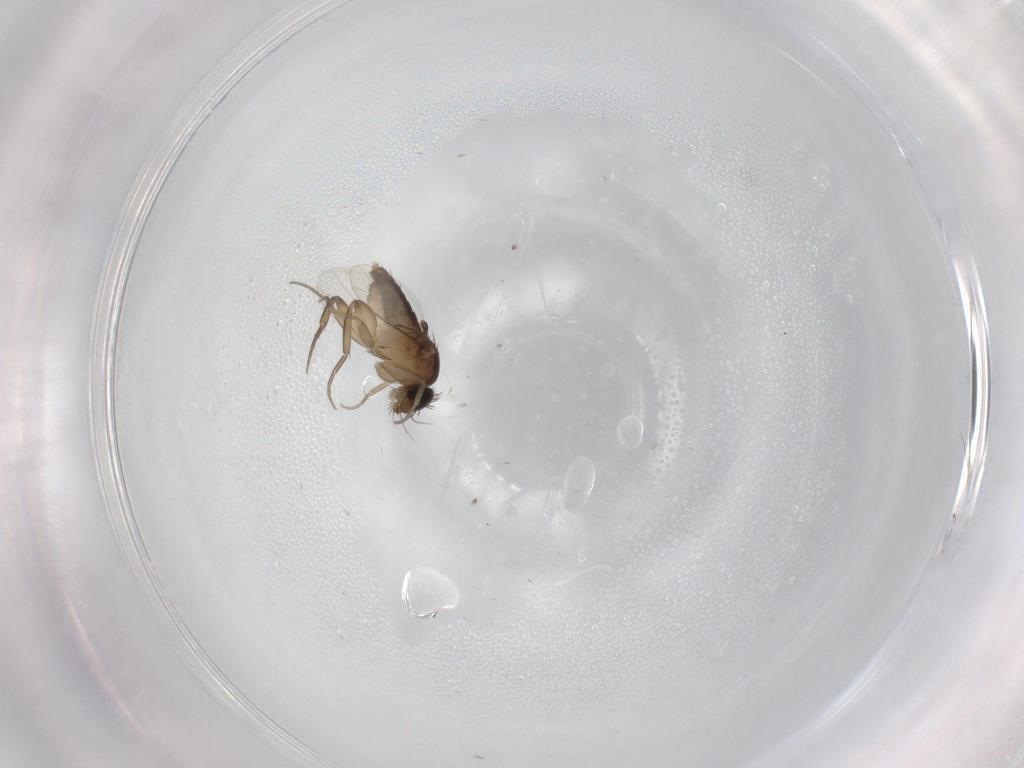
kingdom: Animalia
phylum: Arthropoda
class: Insecta
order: Diptera
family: Phoridae
